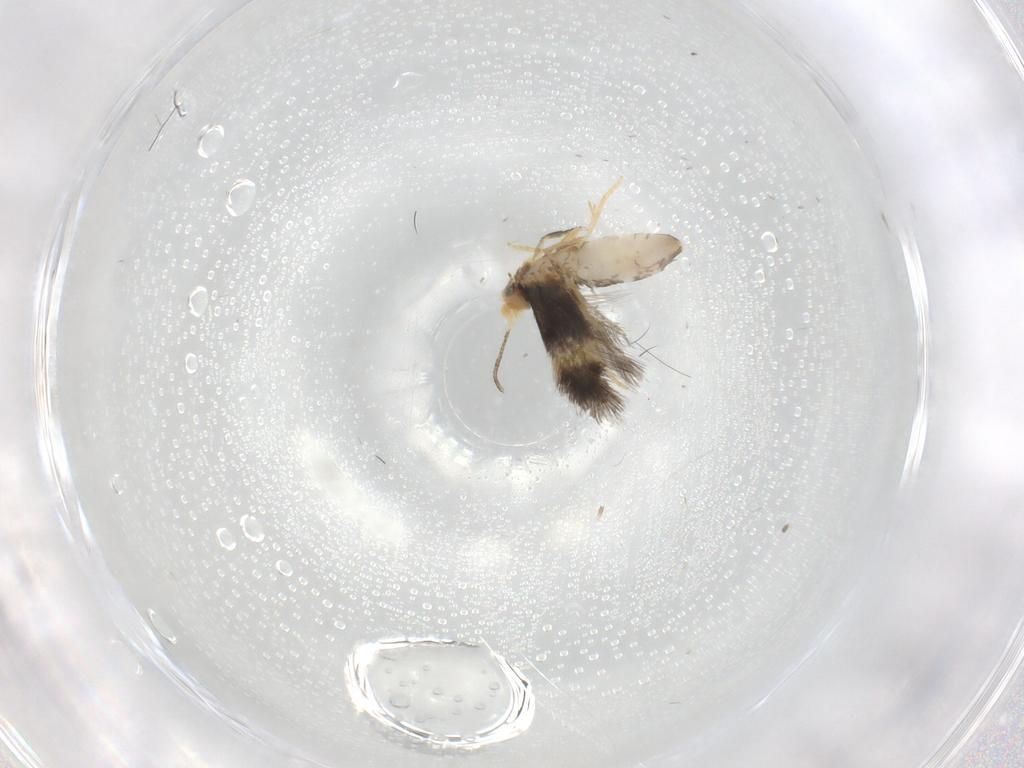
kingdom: Animalia
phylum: Arthropoda
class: Insecta
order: Lepidoptera
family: Nepticulidae
